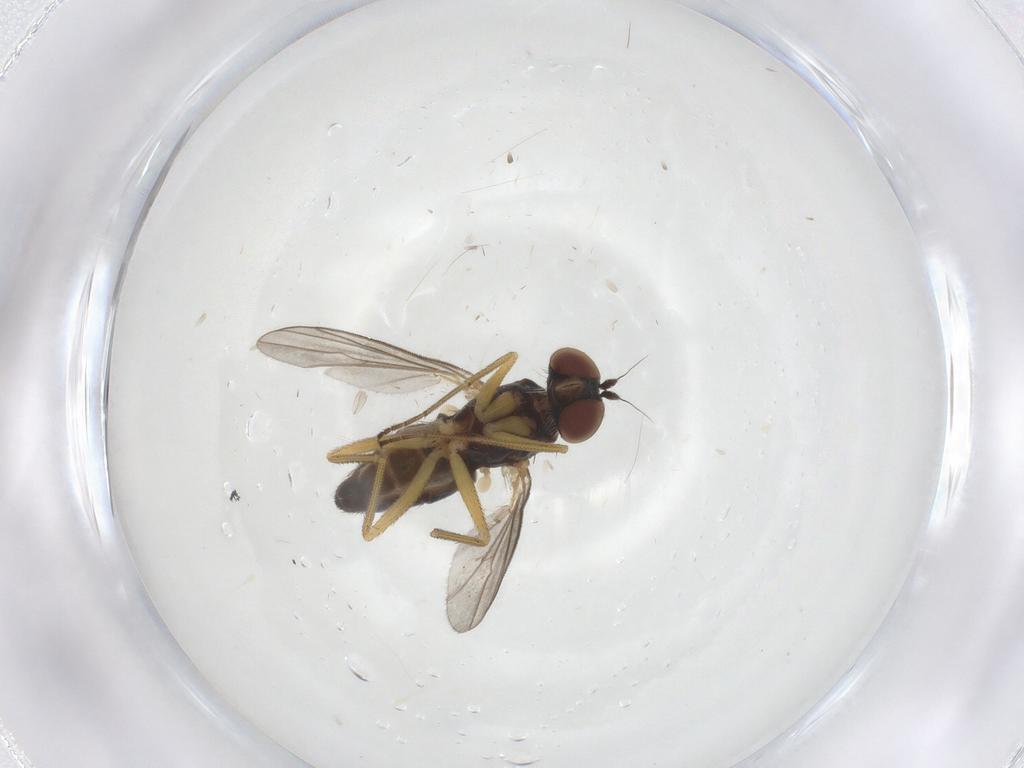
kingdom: Animalia
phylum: Arthropoda
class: Insecta
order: Diptera
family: Dolichopodidae
